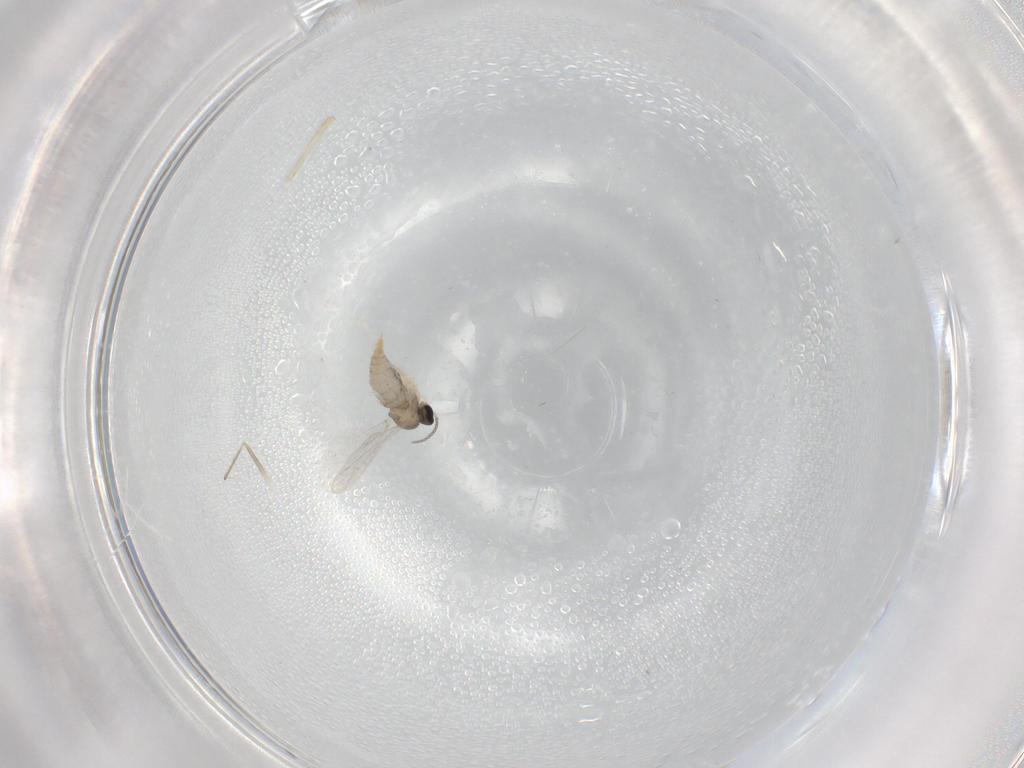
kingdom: Animalia
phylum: Arthropoda
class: Insecta
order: Diptera
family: Cecidomyiidae
